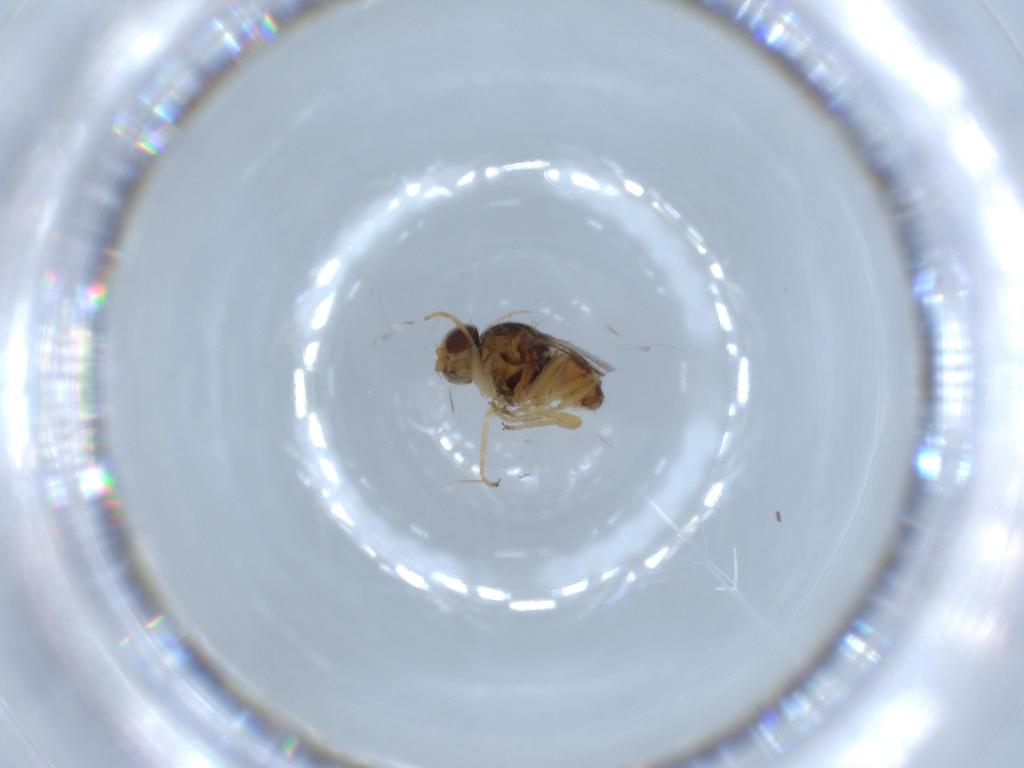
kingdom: Animalia
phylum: Arthropoda
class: Insecta
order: Diptera
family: Chloropidae
